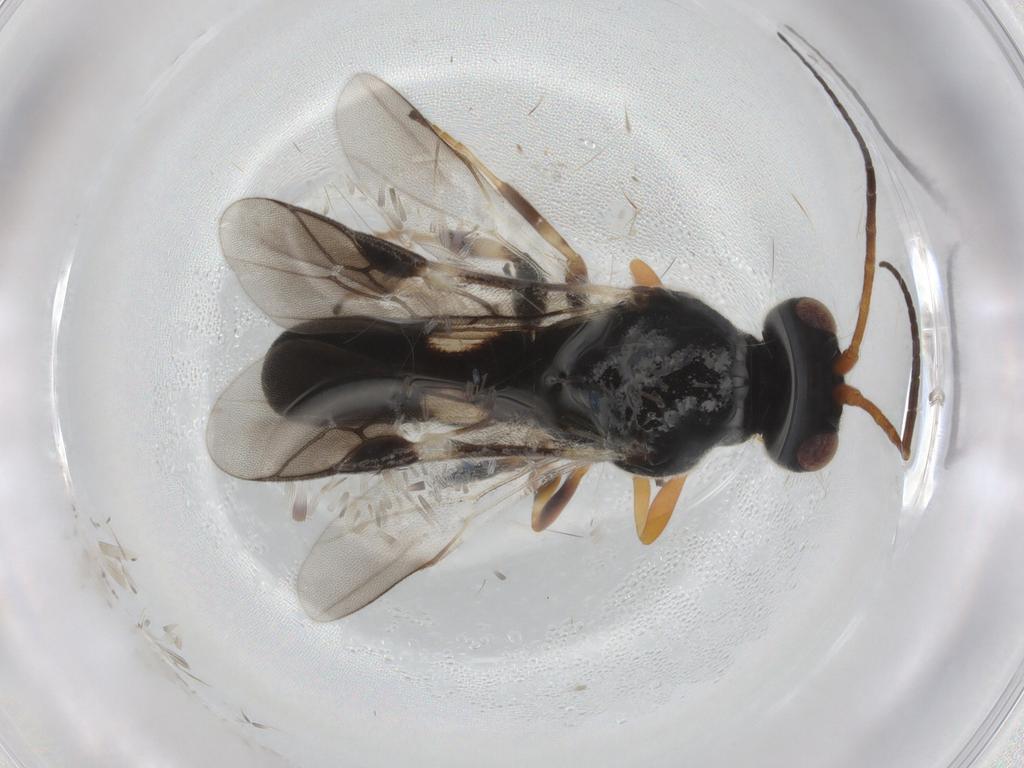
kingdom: Animalia
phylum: Arthropoda
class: Insecta
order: Hymenoptera
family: Braconidae
